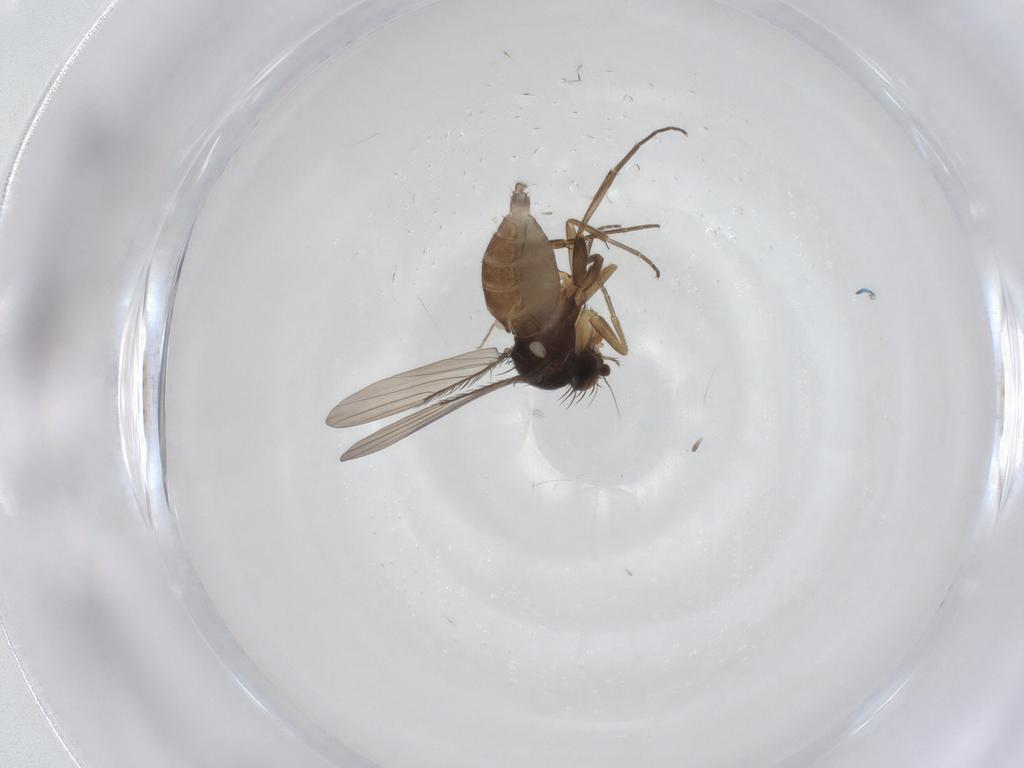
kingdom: Animalia
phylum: Arthropoda
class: Insecta
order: Diptera
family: Phoridae
